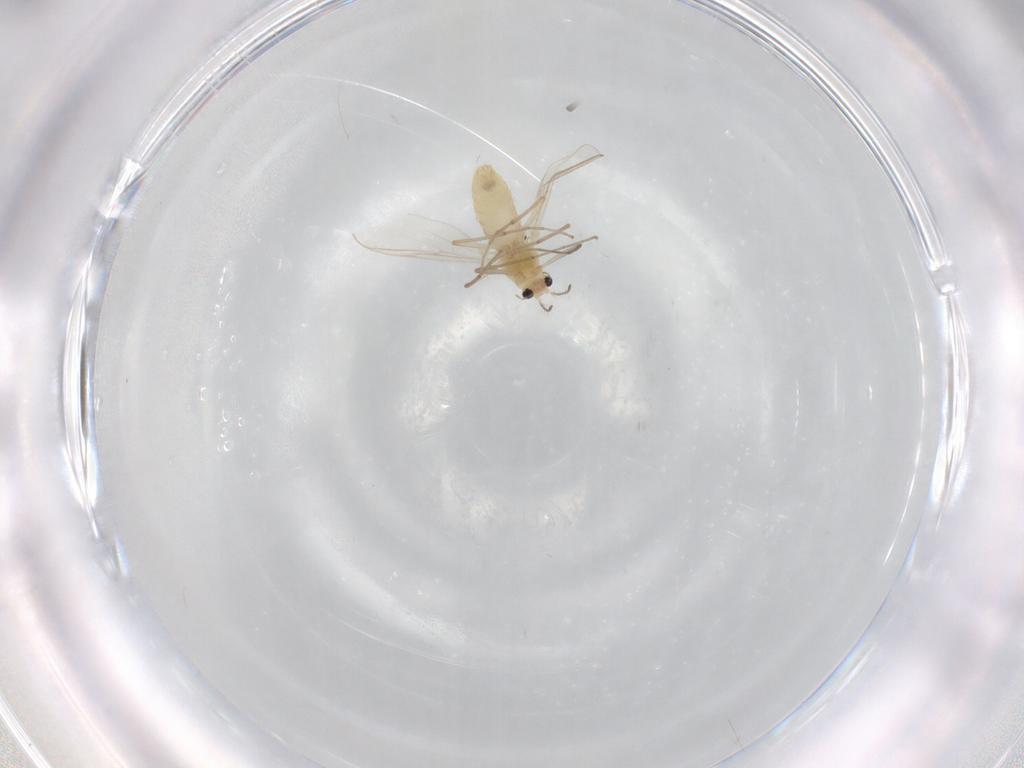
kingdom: Animalia
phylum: Arthropoda
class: Insecta
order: Diptera
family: Chironomidae
